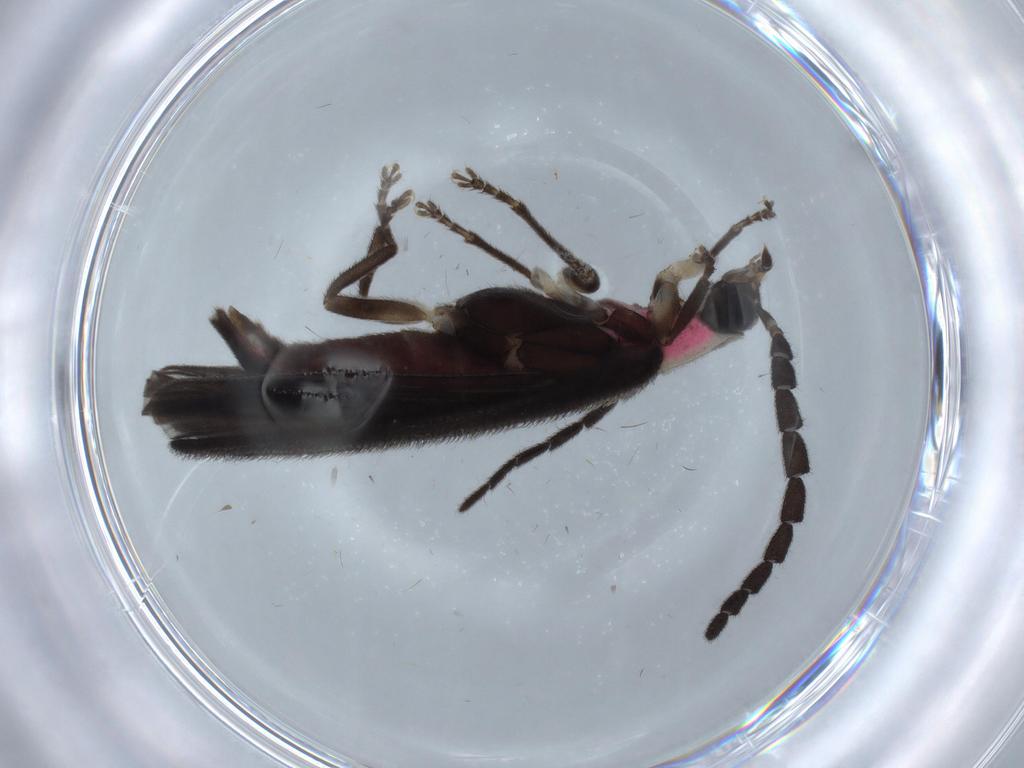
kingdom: Animalia
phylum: Arthropoda
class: Insecta
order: Coleoptera
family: Lampyridae
